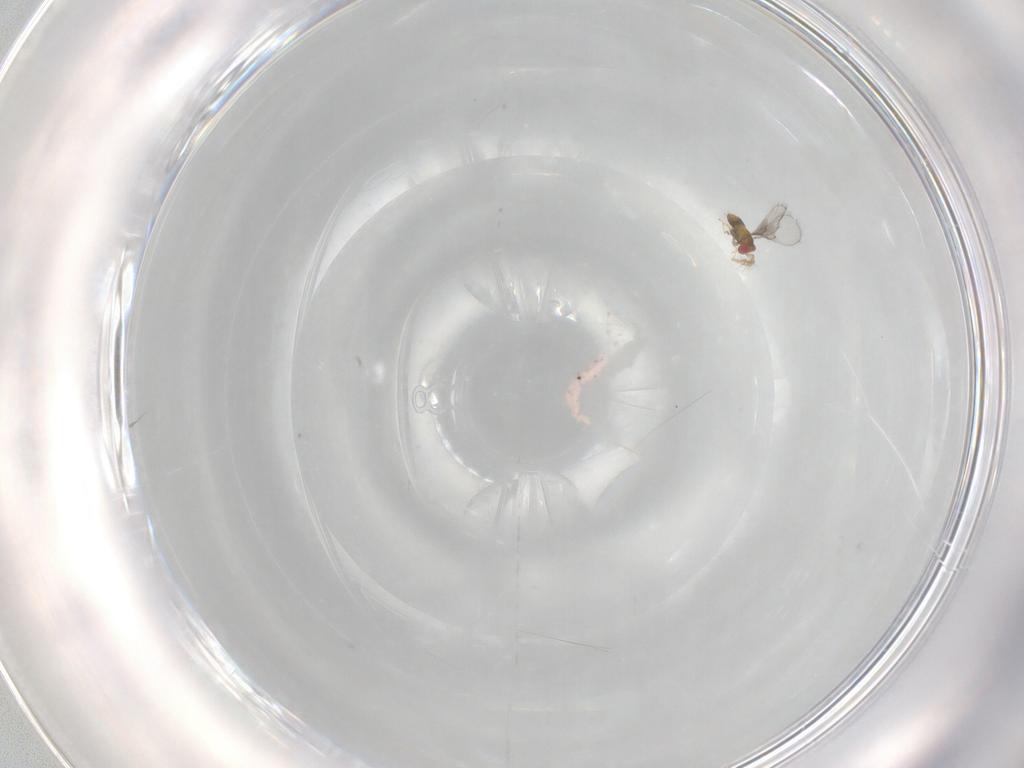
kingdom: Animalia
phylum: Arthropoda
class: Insecta
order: Hymenoptera
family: Trichogrammatidae
